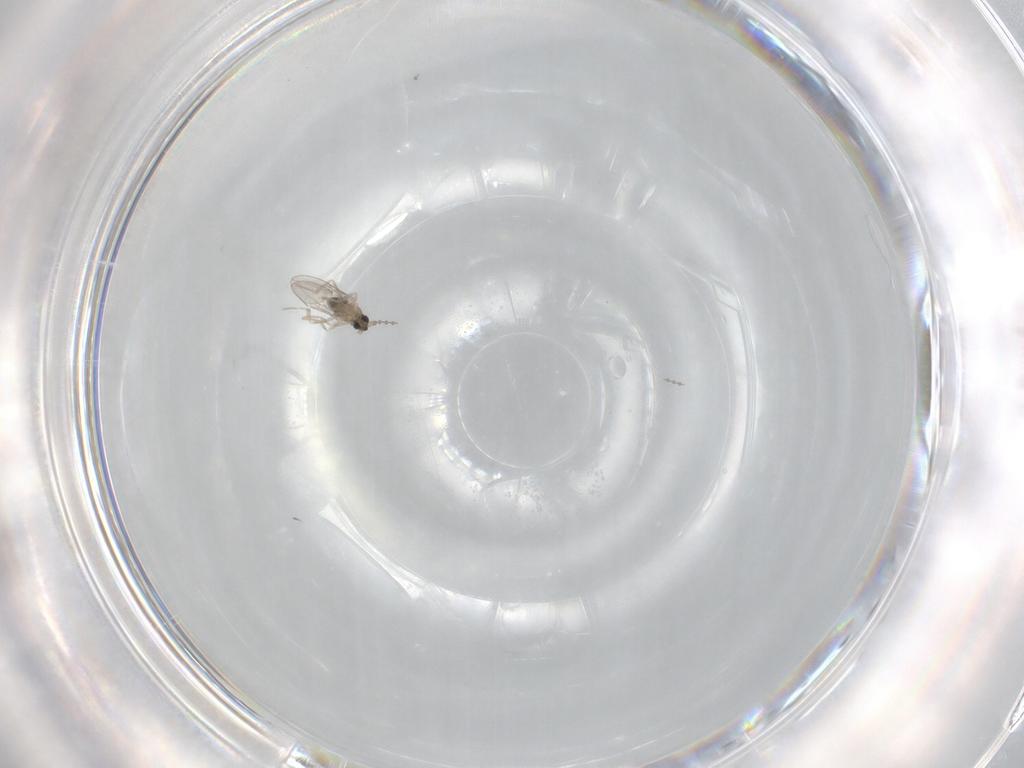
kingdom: Animalia
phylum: Arthropoda
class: Insecta
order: Diptera
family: Cecidomyiidae
